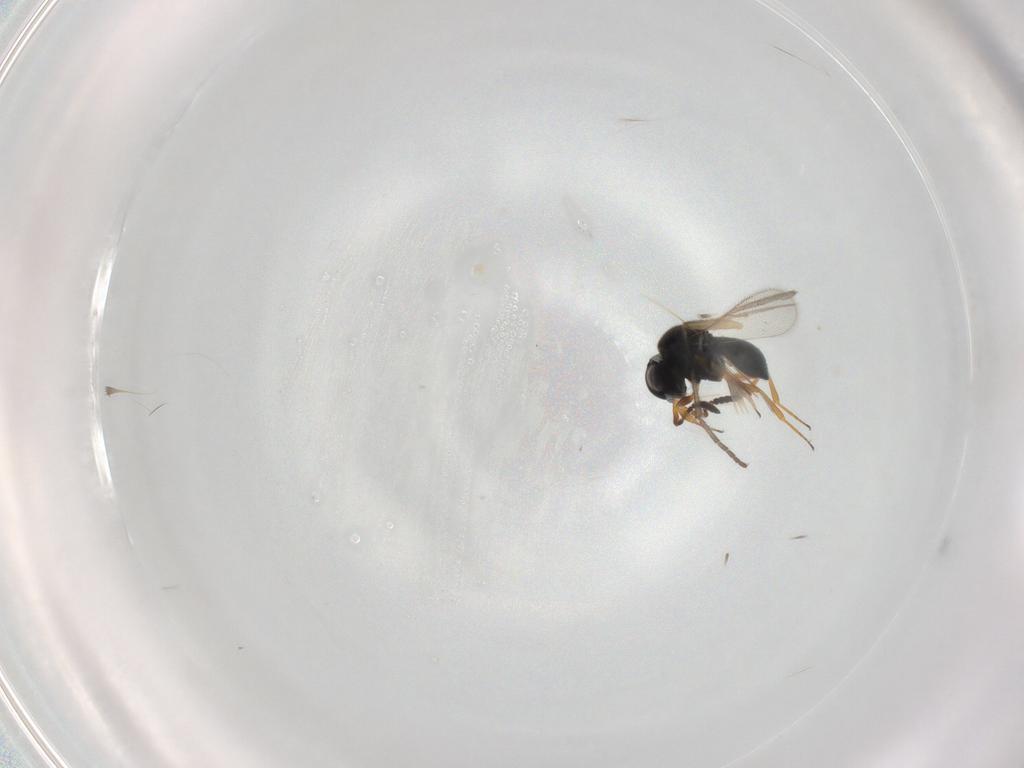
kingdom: Animalia
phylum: Arthropoda
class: Insecta
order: Hymenoptera
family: Scelionidae
